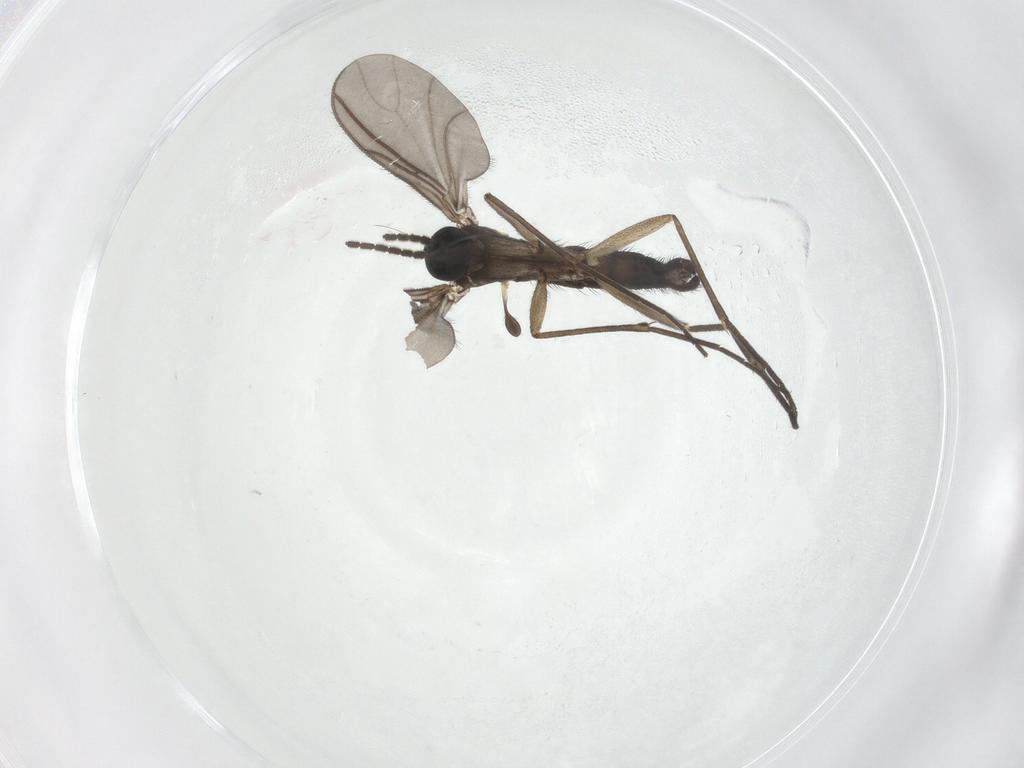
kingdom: Animalia
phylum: Arthropoda
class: Insecta
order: Diptera
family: Sciaridae
